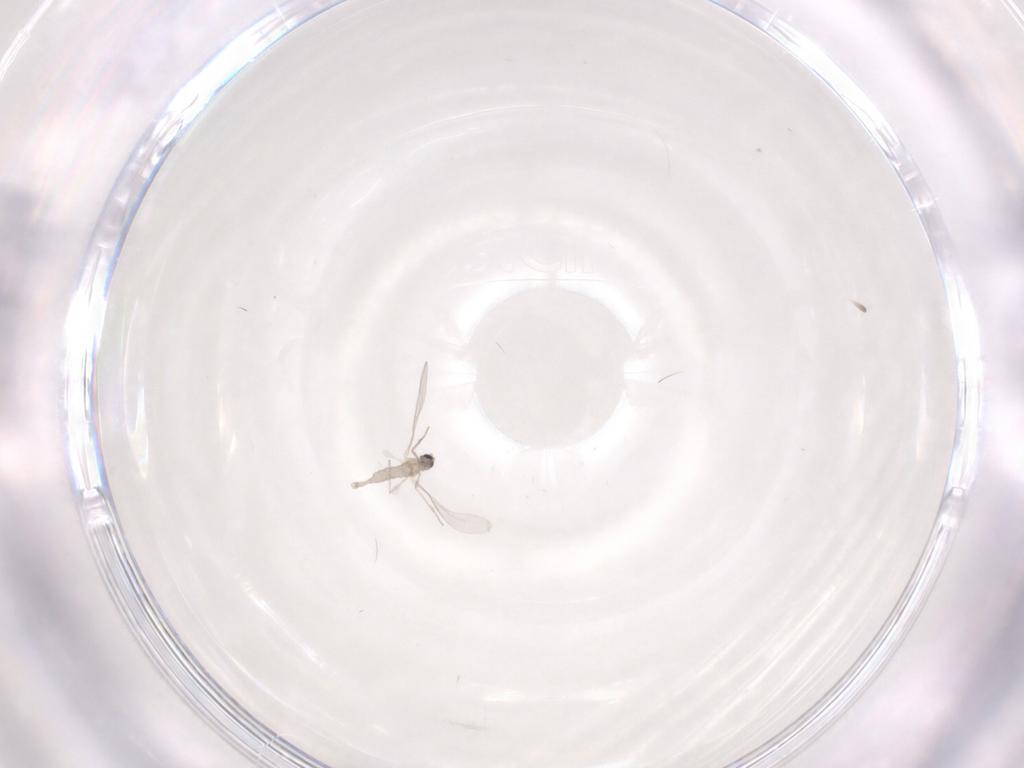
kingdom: Animalia
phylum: Arthropoda
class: Insecta
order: Diptera
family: Cecidomyiidae
